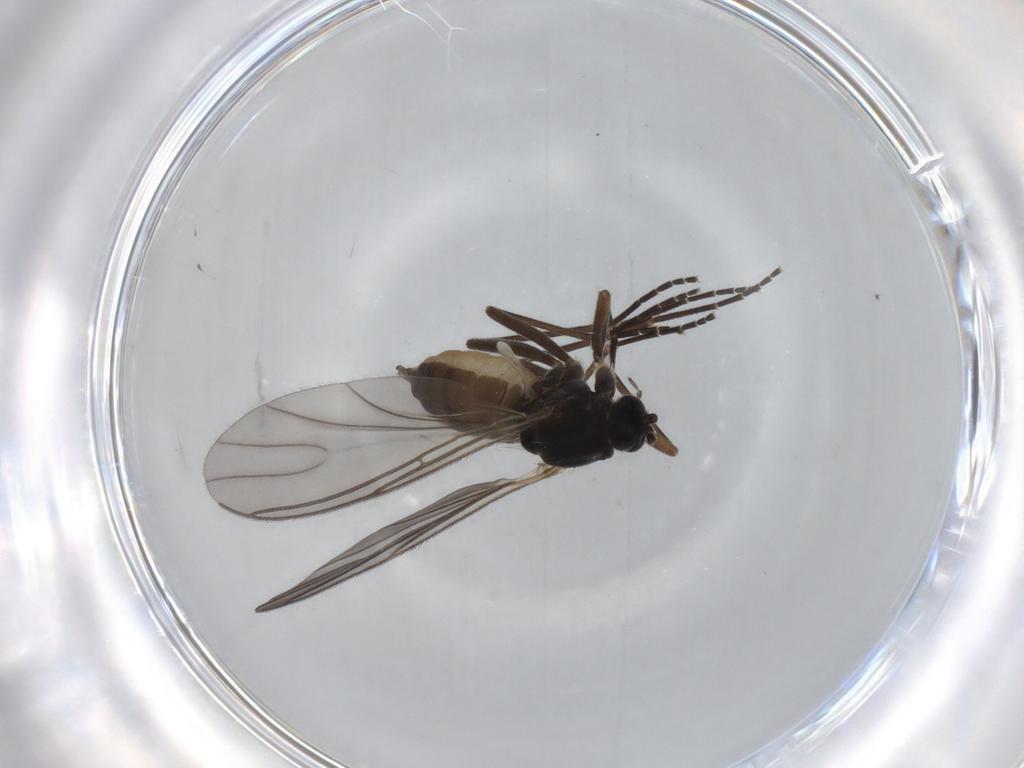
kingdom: Animalia
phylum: Arthropoda
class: Insecta
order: Diptera
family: Sciaridae
